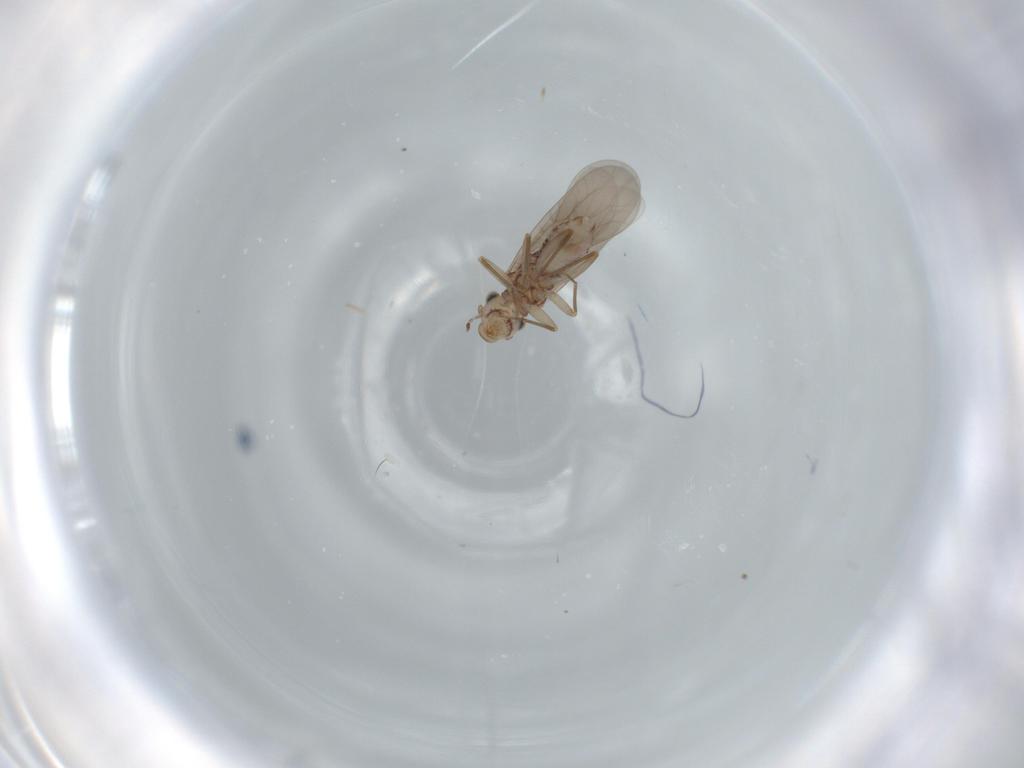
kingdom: Animalia
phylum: Arthropoda
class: Insecta
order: Psocodea
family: Lepidopsocidae
